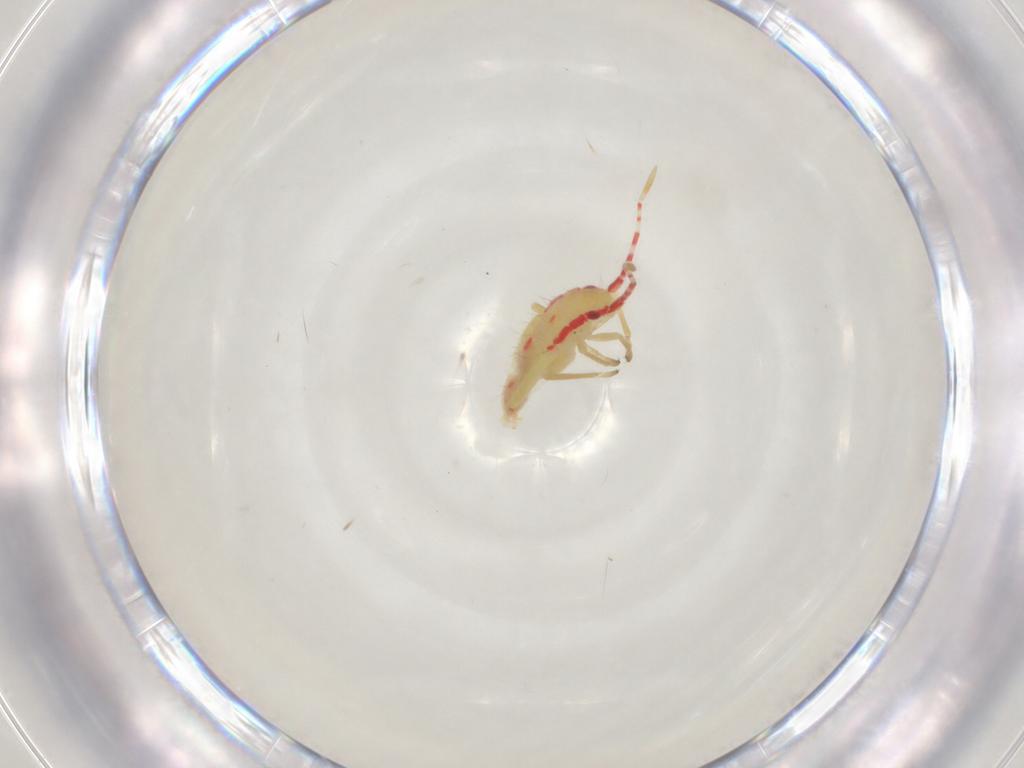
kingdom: Animalia
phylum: Arthropoda
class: Insecta
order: Hemiptera
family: Miridae
